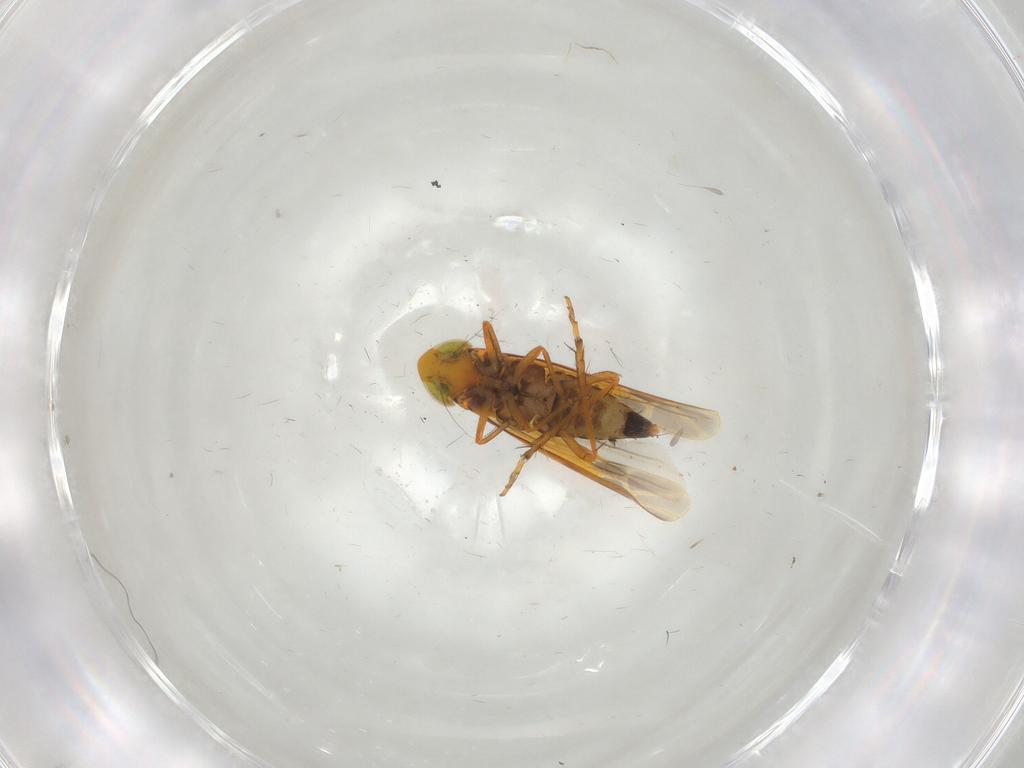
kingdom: Animalia
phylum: Arthropoda
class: Insecta
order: Hemiptera
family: Cicadellidae
